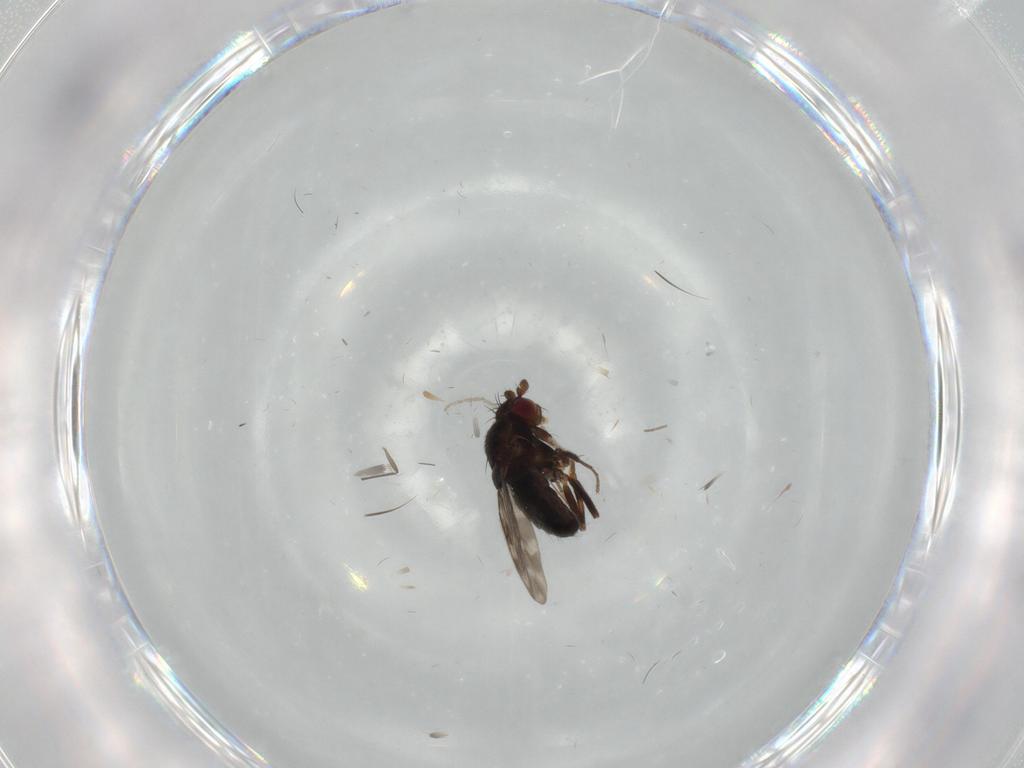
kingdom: Animalia
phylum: Arthropoda
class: Insecta
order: Diptera
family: Sphaeroceridae
